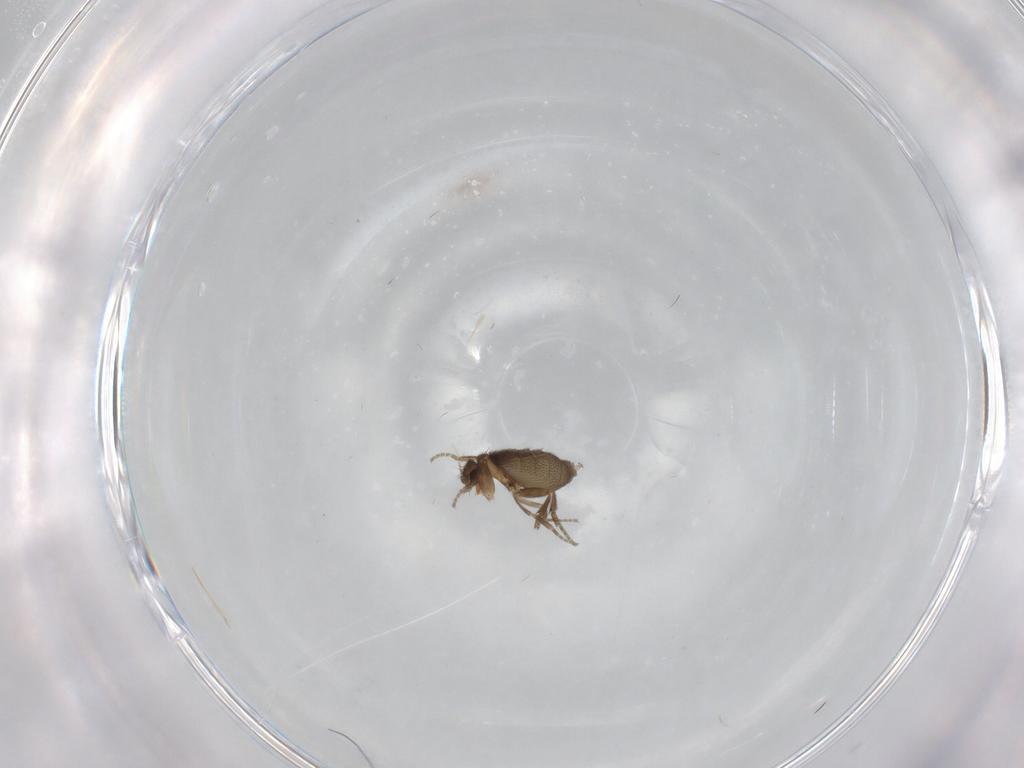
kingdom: Animalia
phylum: Arthropoda
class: Insecta
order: Diptera
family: Cecidomyiidae
